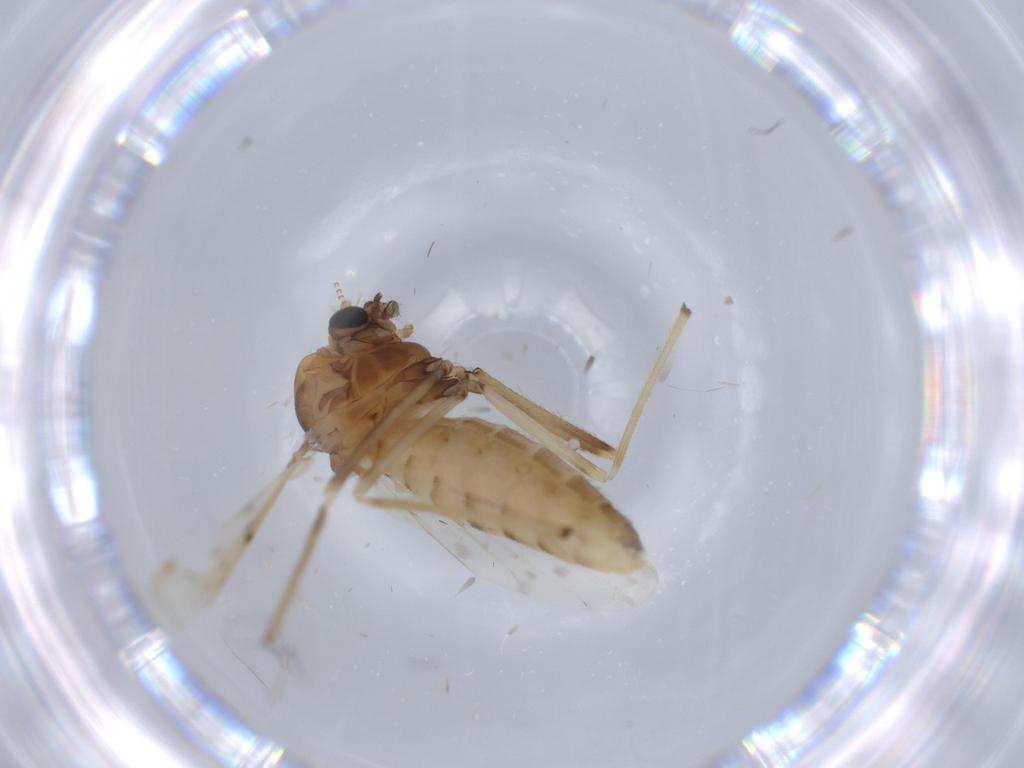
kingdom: Animalia
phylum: Arthropoda
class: Insecta
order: Diptera
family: Chironomidae
